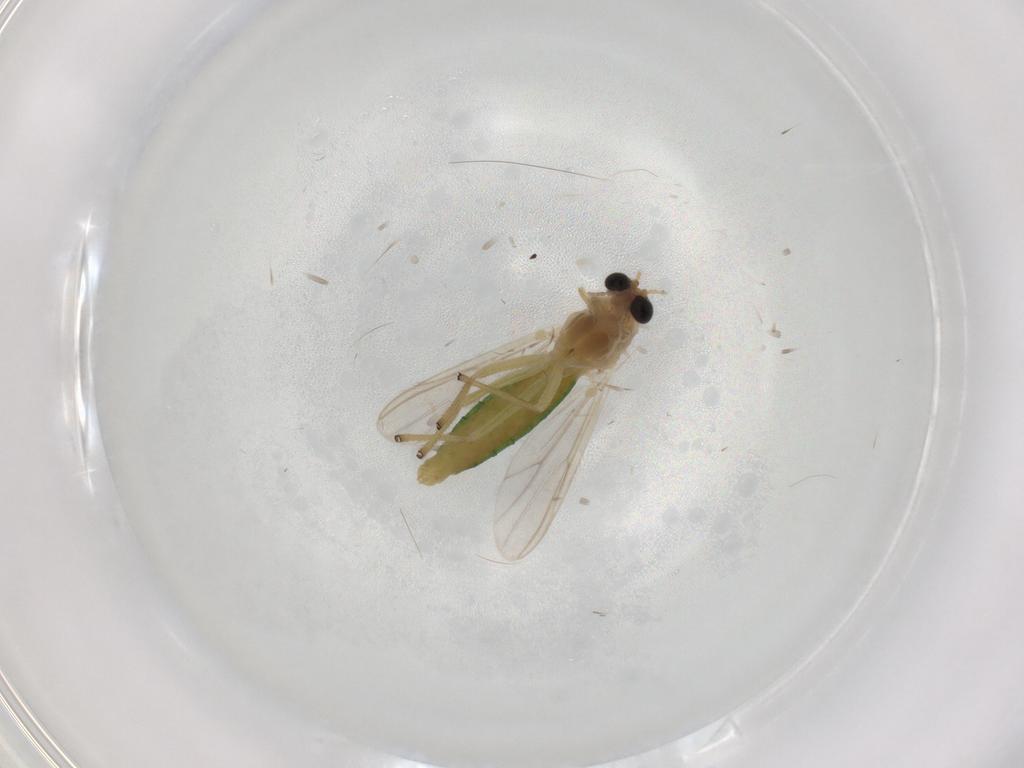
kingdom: Animalia
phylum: Arthropoda
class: Insecta
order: Diptera
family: Chironomidae
